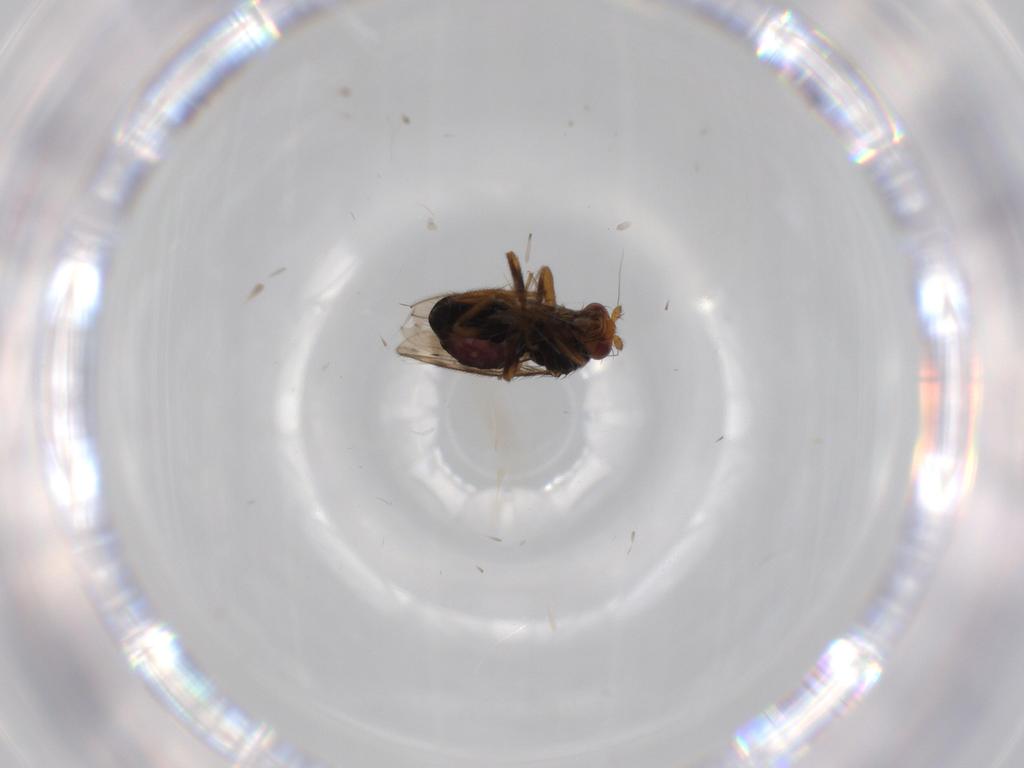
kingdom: Animalia
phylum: Arthropoda
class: Insecta
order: Diptera
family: Sphaeroceridae
